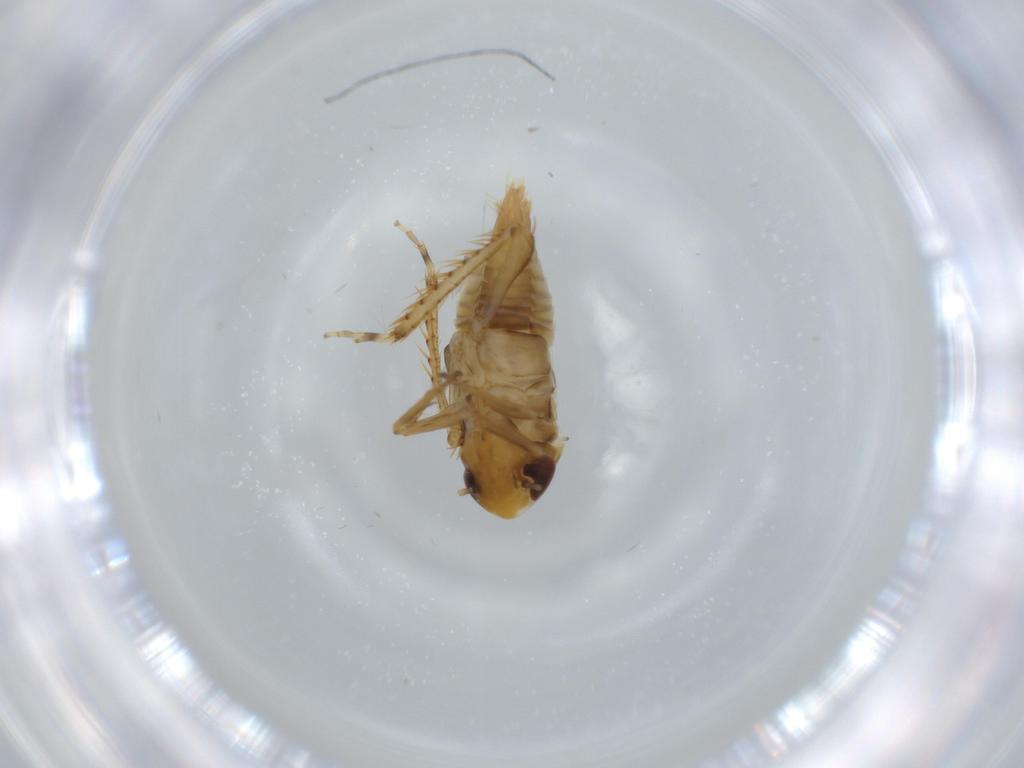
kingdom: Animalia
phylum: Arthropoda
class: Insecta
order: Hemiptera
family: Cicadellidae
